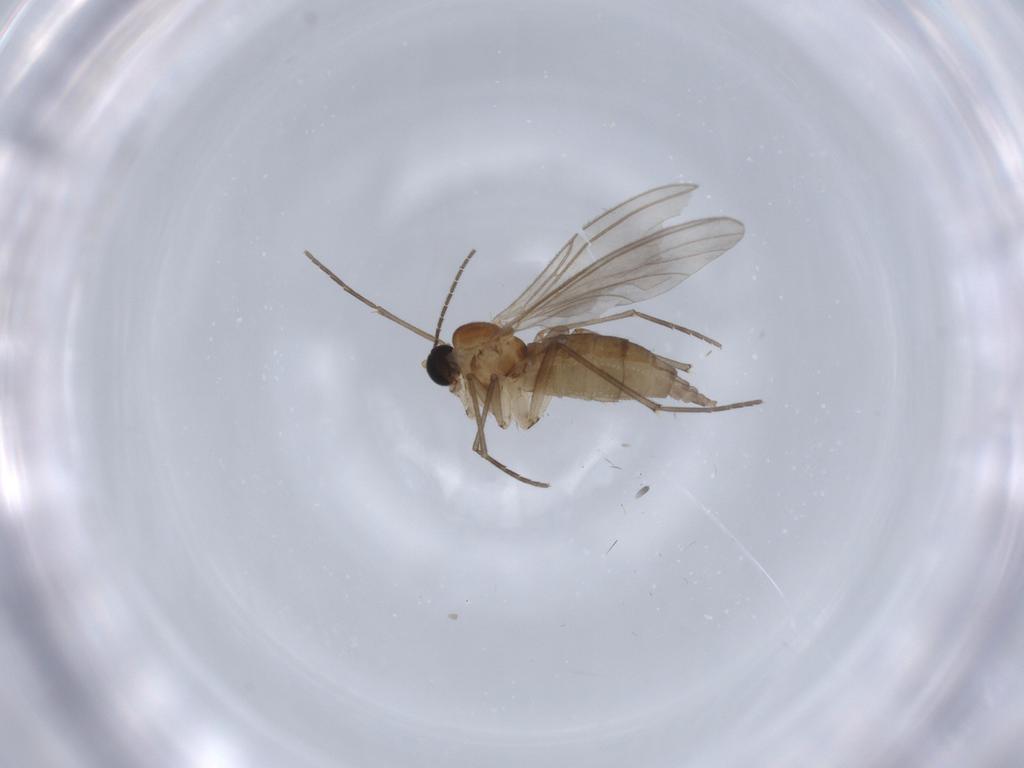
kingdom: Animalia
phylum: Arthropoda
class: Insecta
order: Diptera
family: Sciaridae
